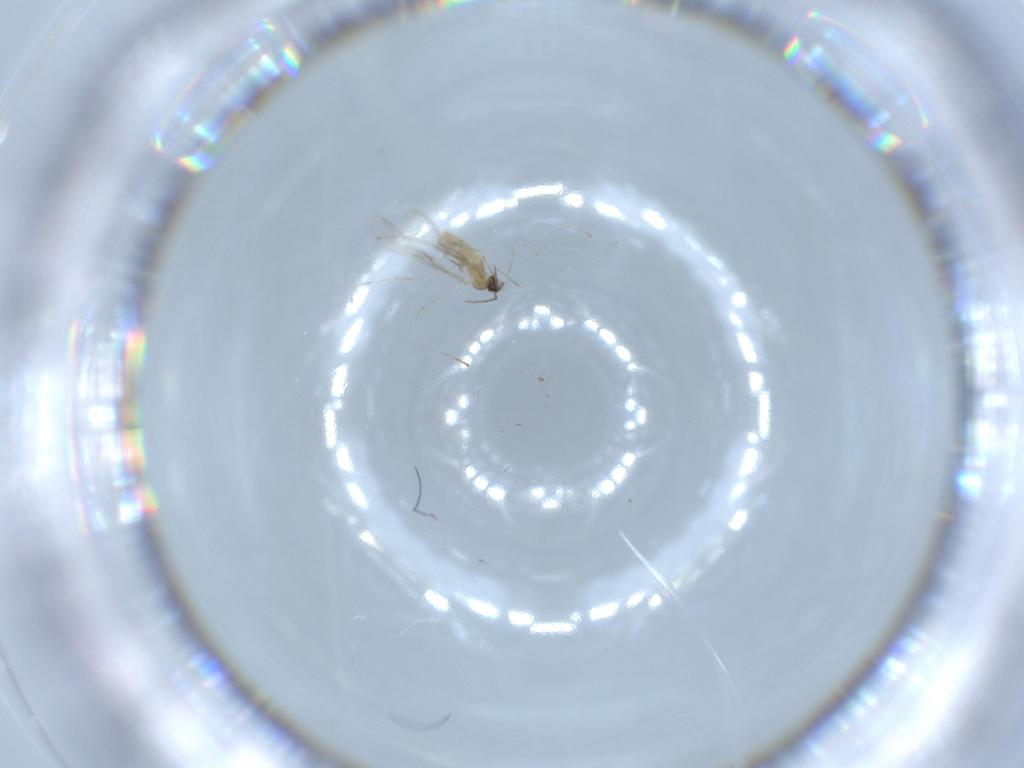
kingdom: Animalia
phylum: Arthropoda
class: Insecta
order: Diptera
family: Cecidomyiidae
